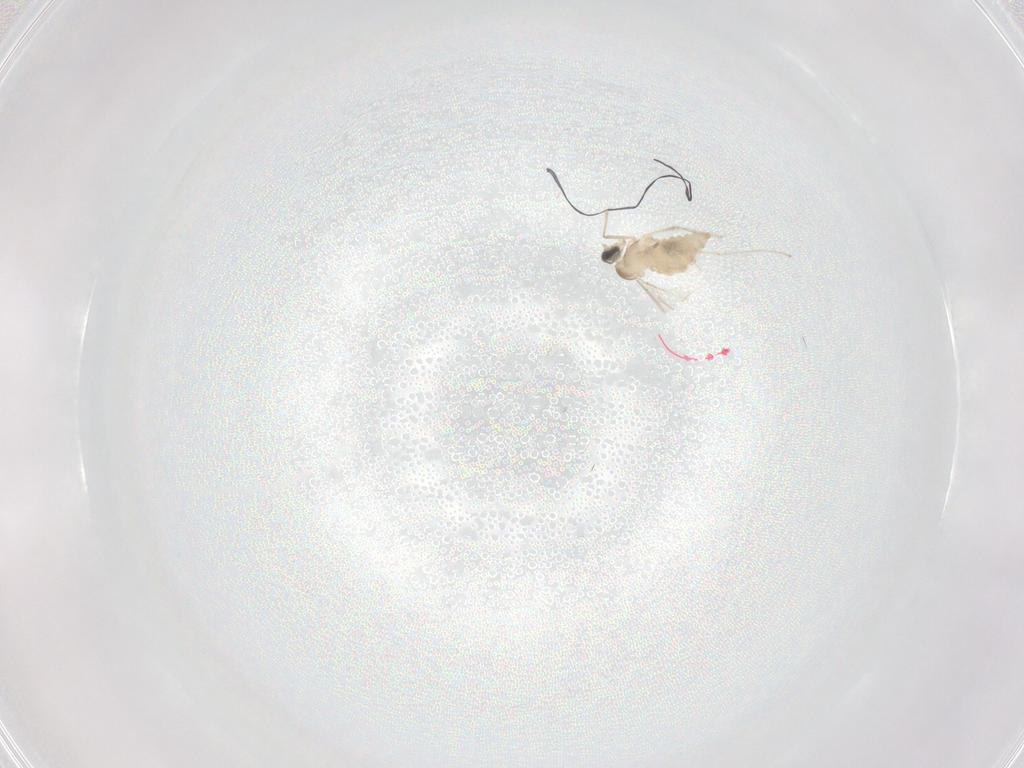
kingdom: Animalia
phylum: Arthropoda
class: Insecta
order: Diptera
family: Cecidomyiidae
